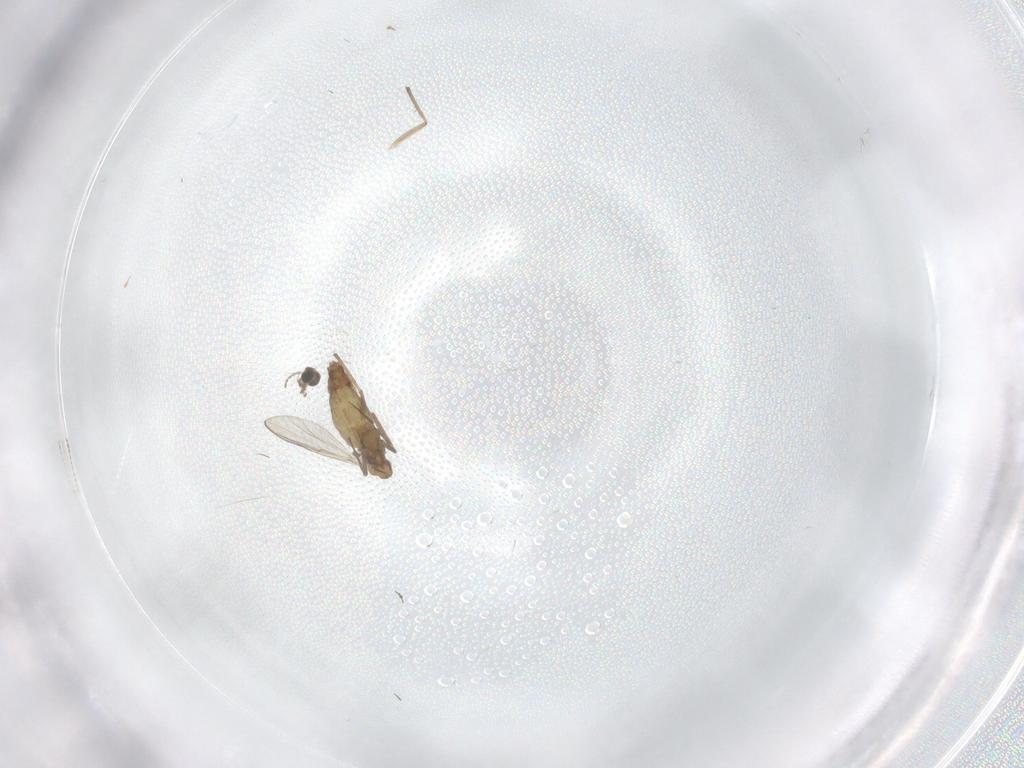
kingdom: Animalia
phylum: Arthropoda
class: Insecta
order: Diptera
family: Chironomidae
